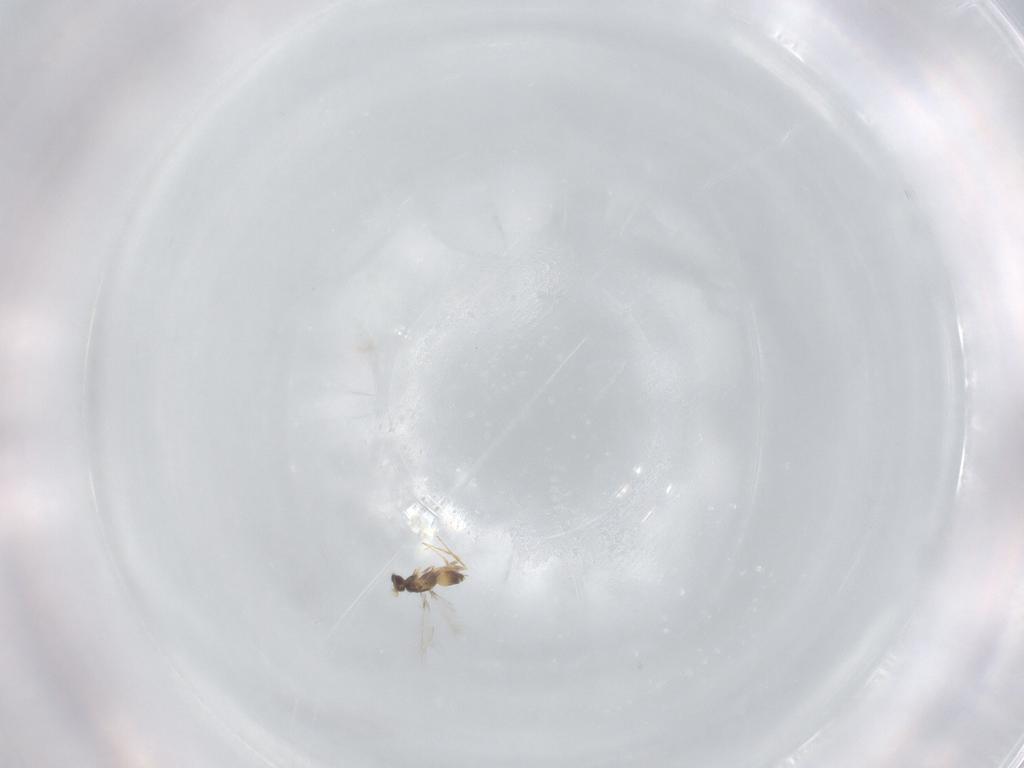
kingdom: Animalia
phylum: Arthropoda
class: Insecta
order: Hymenoptera
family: Mymaridae
